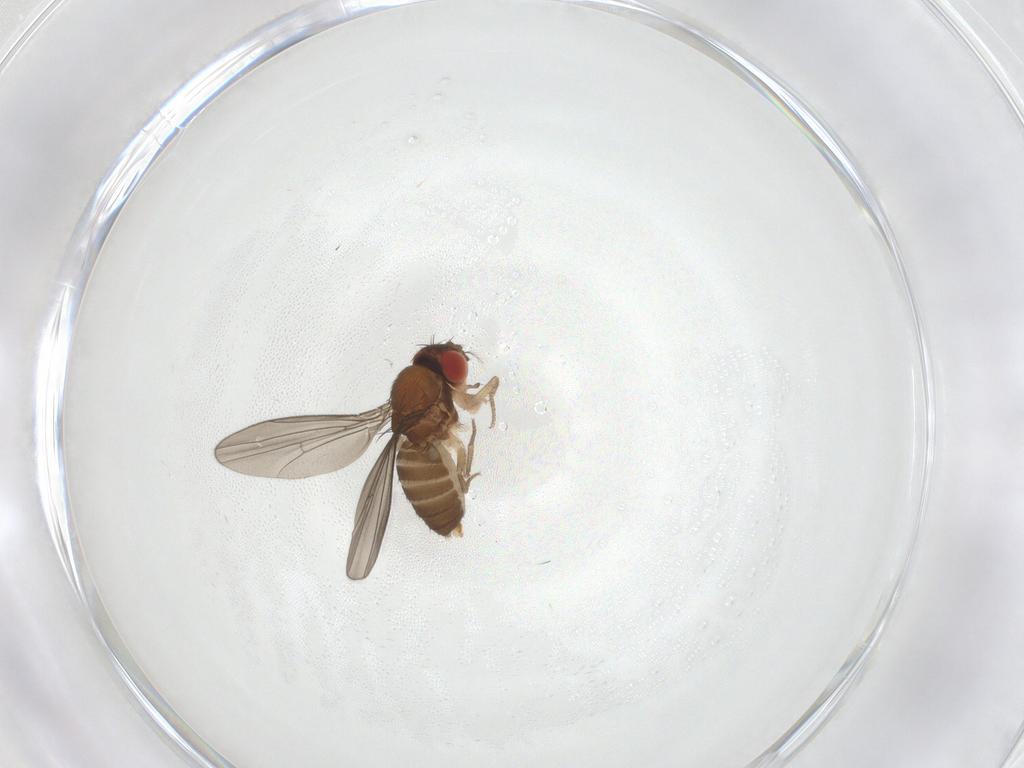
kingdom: Animalia
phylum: Arthropoda
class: Insecta
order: Diptera
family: Drosophilidae
